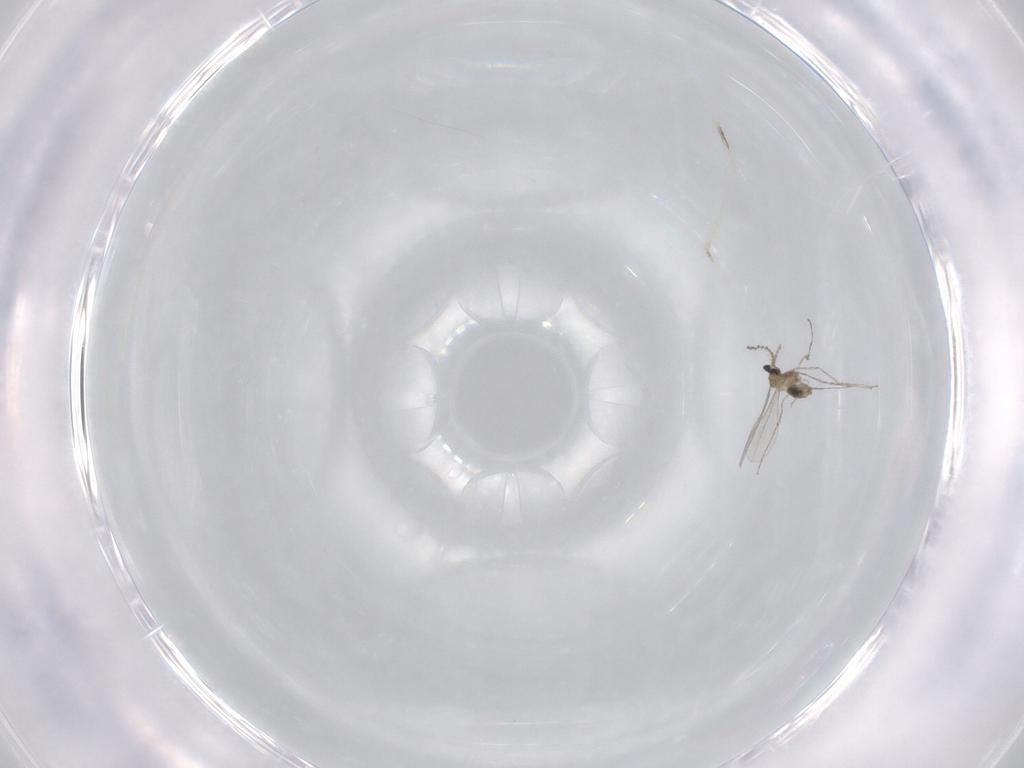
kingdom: Animalia
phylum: Arthropoda
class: Insecta
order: Diptera
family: Cecidomyiidae
